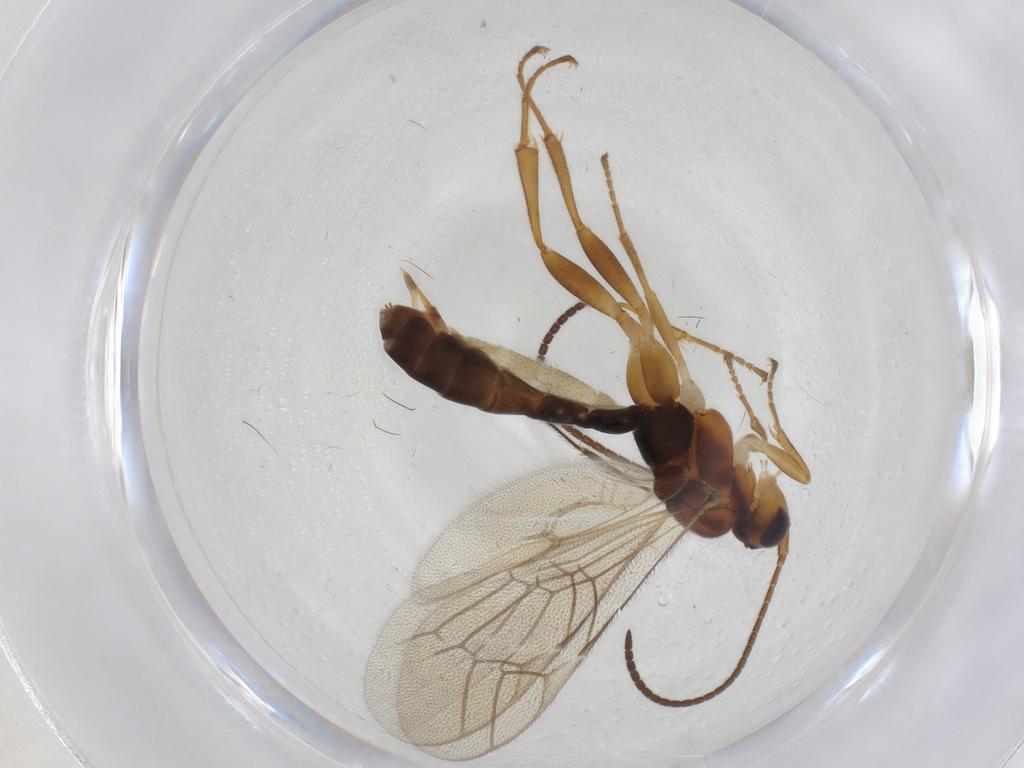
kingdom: Animalia
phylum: Arthropoda
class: Insecta
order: Hymenoptera
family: Ichneumonidae
